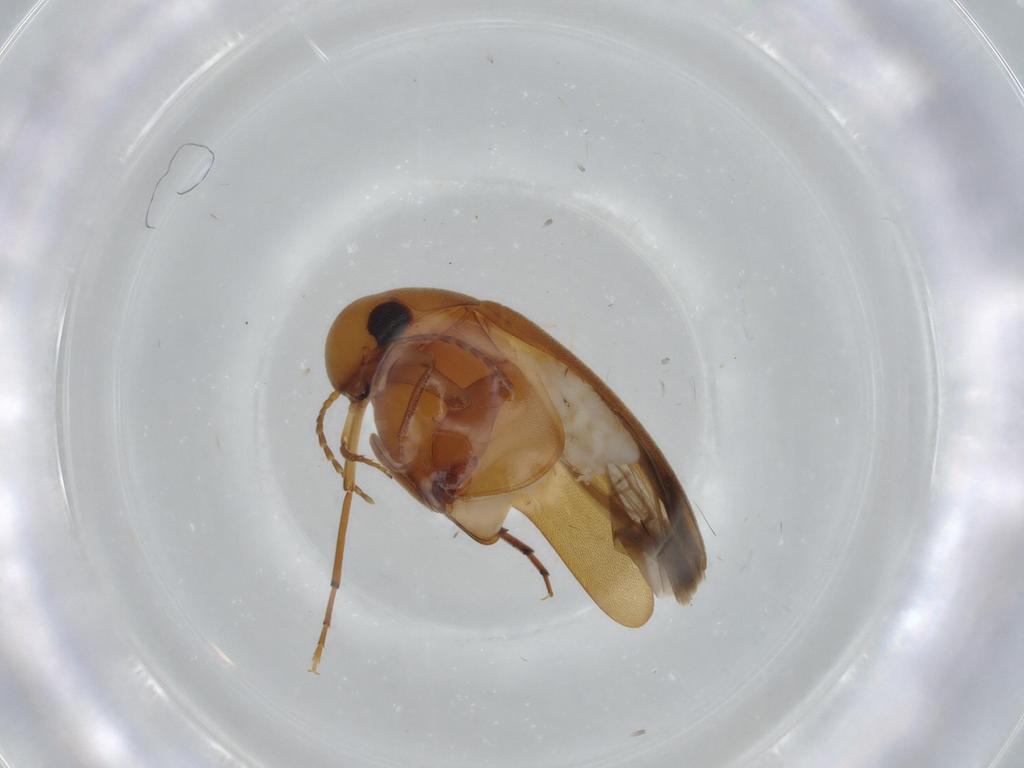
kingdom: Animalia
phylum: Arthropoda
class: Insecta
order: Coleoptera
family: Mordellidae
